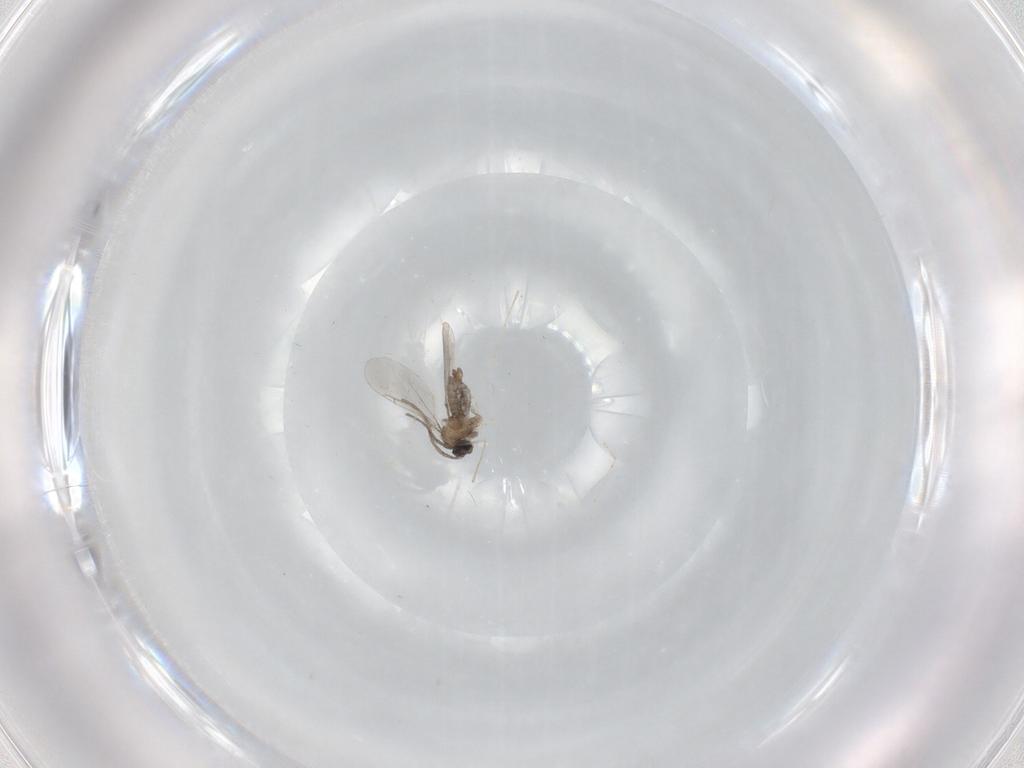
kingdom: Animalia
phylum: Arthropoda
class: Insecta
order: Diptera
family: Cecidomyiidae
